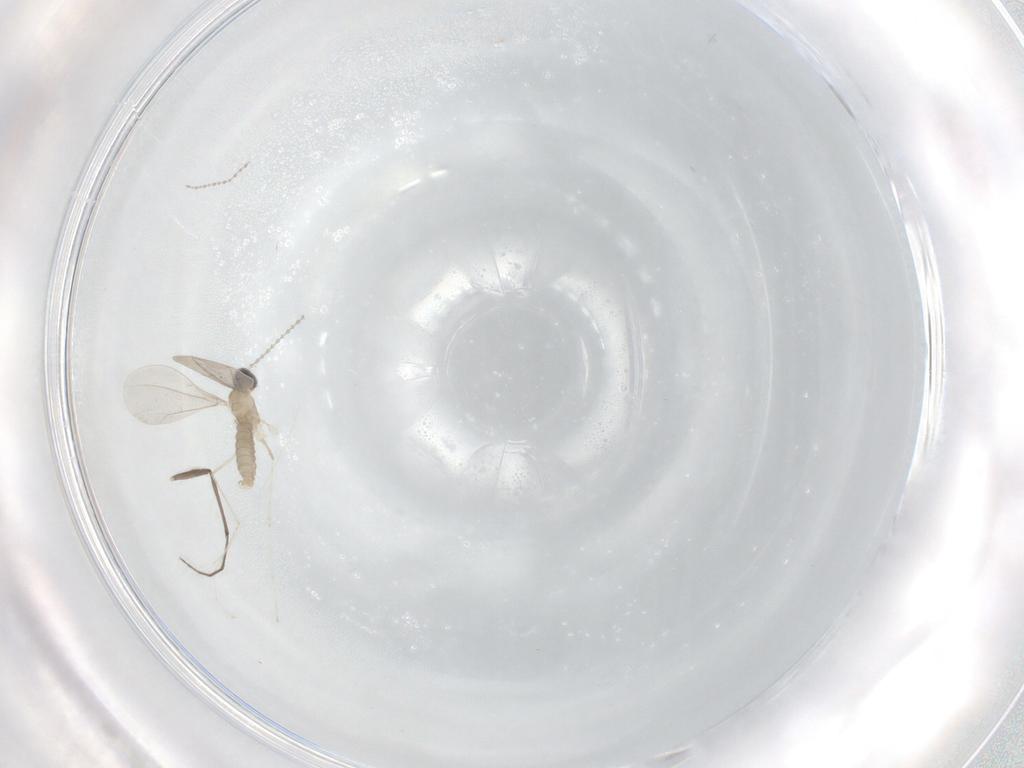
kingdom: Animalia
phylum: Arthropoda
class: Insecta
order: Diptera
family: Cecidomyiidae
